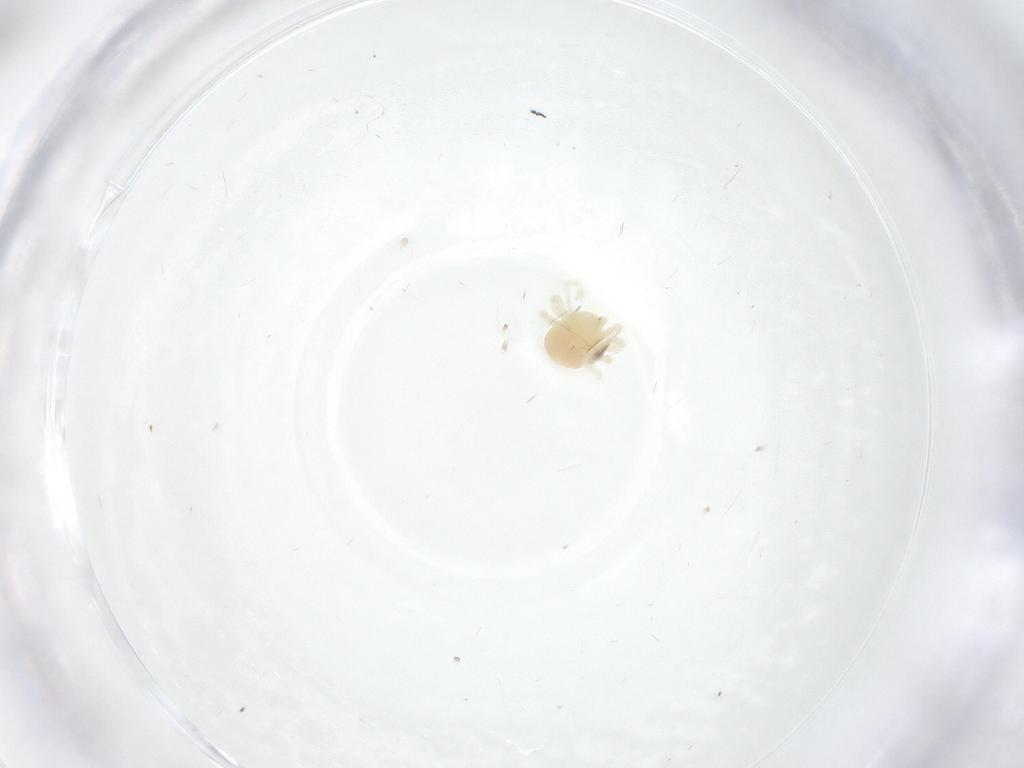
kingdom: Animalia
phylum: Arthropoda
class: Arachnida
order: Trombidiformes
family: Anystidae
